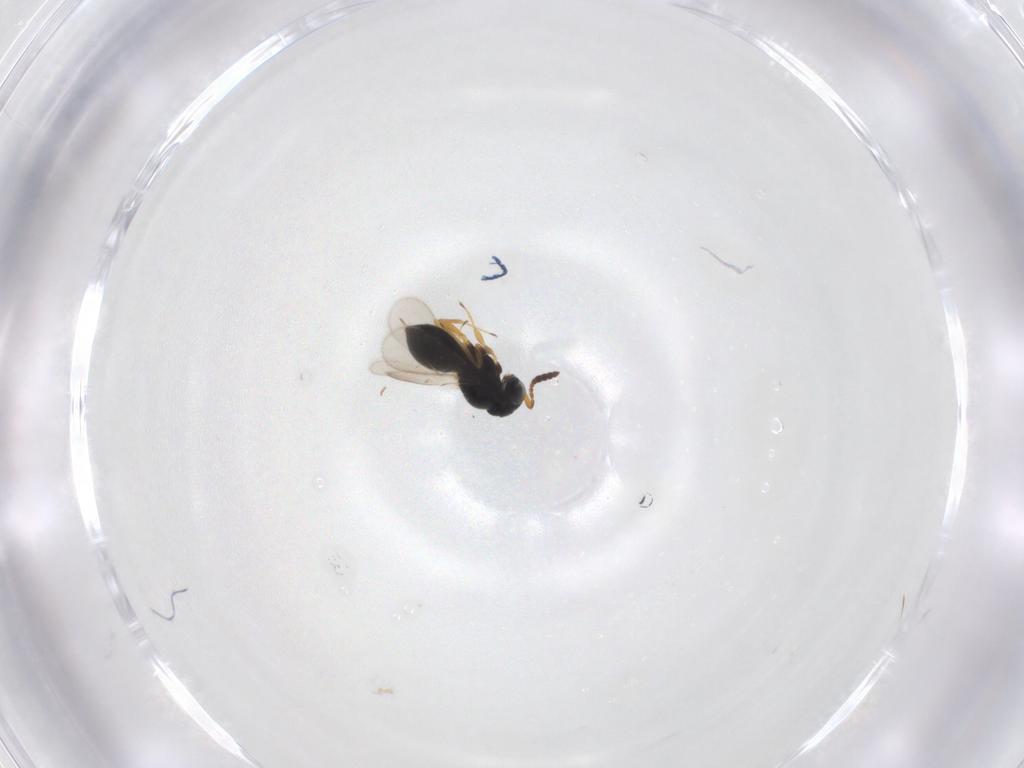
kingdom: Animalia
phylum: Arthropoda
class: Insecta
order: Hymenoptera
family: Scelionidae
